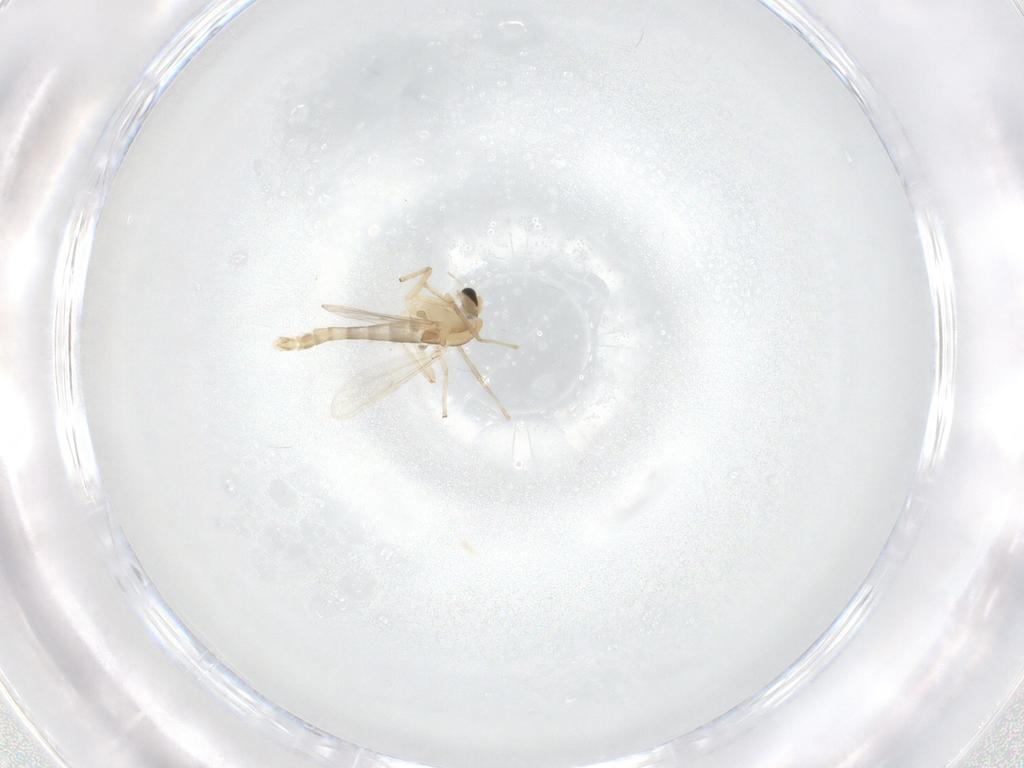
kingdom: Animalia
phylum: Arthropoda
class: Insecta
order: Diptera
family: Chironomidae
